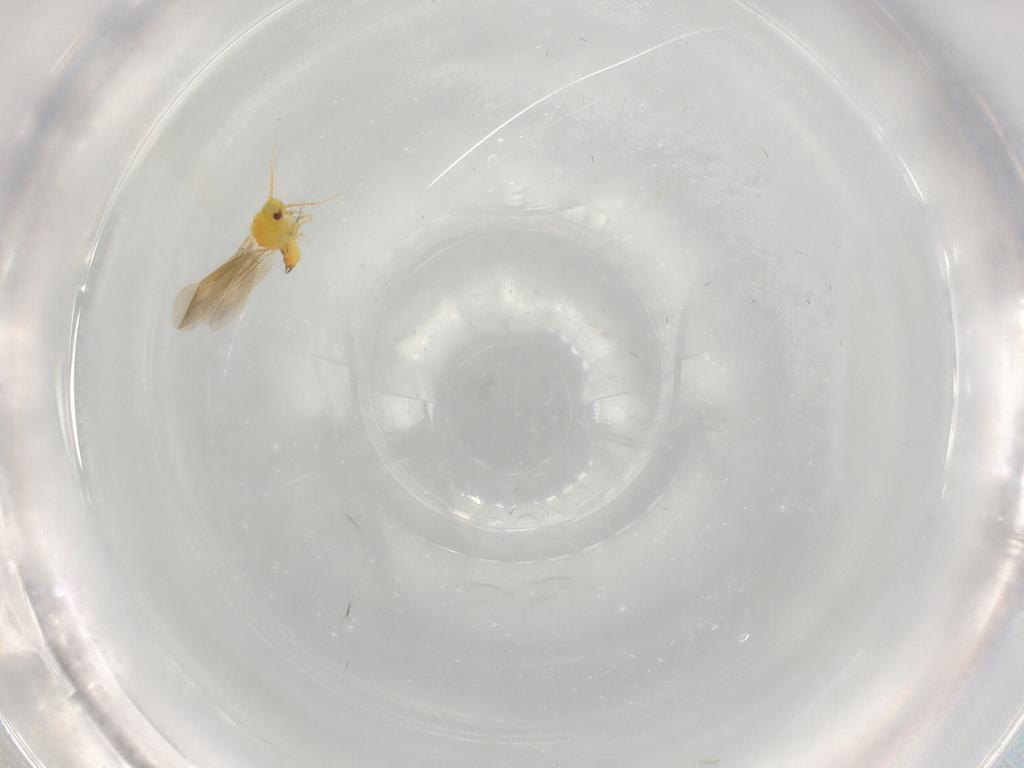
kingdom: Animalia
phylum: Arthropoda
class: Insecta
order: Hemiptera
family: Aleyrodidae
